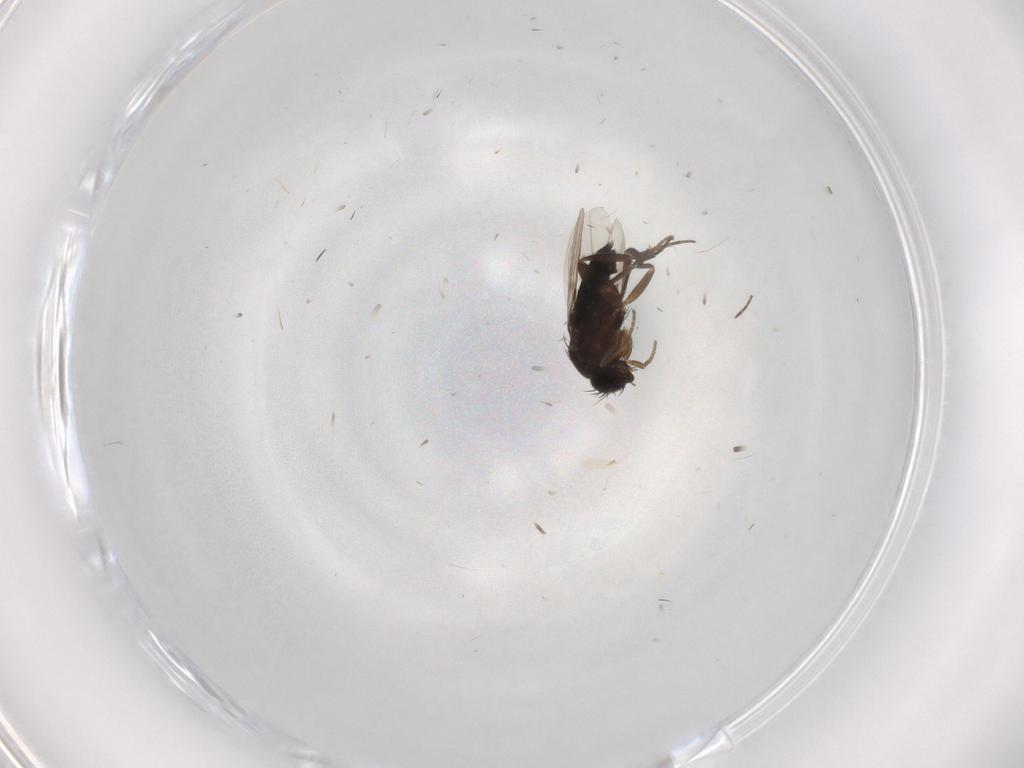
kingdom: Animalia
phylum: Arthropoda
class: Insecta
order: Diptera
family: Phoridae
